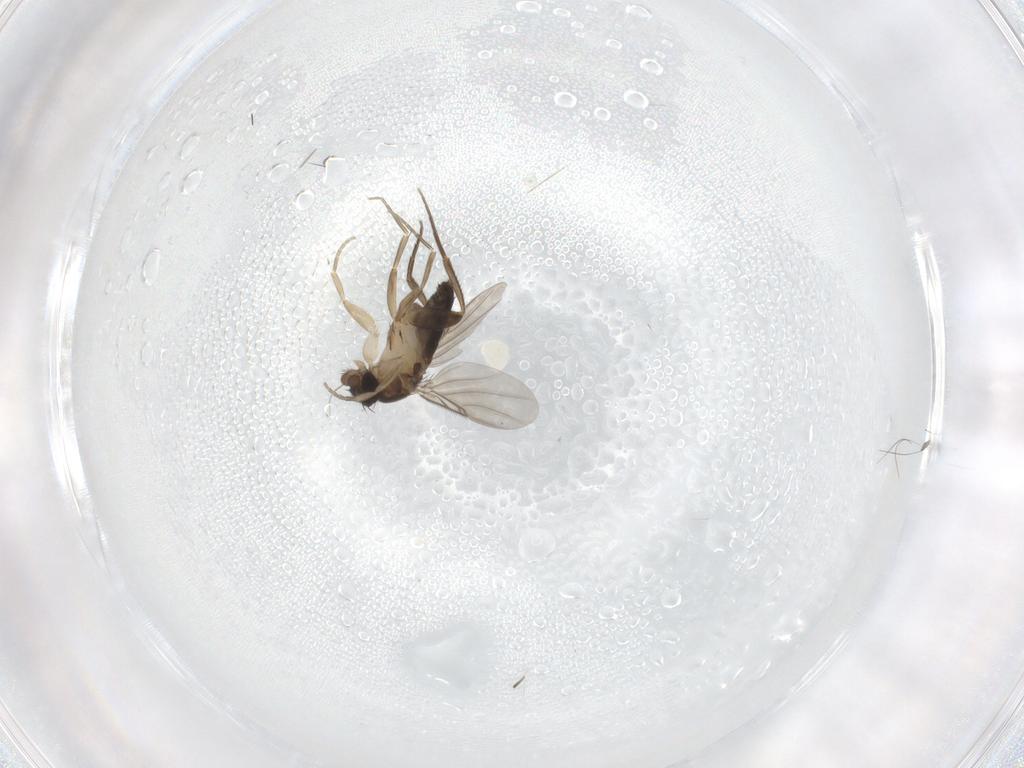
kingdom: Animalia
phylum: Arthropoda
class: Insecta
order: Diptera
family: Phoridae
